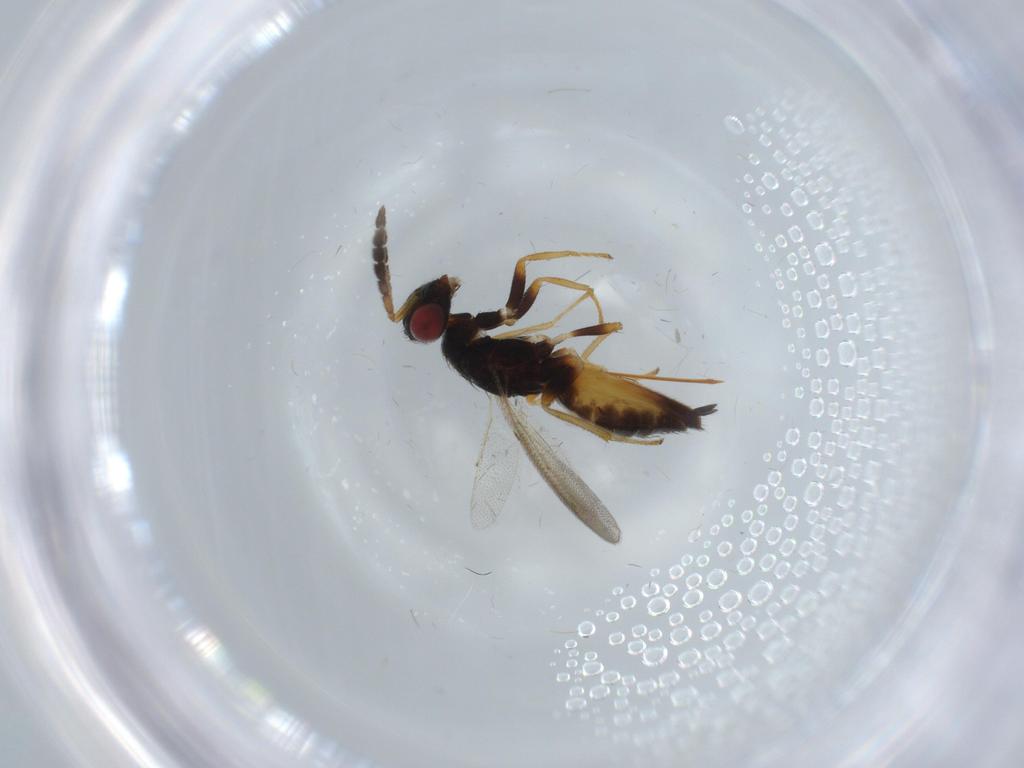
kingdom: Animalia
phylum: Arthropoda
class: Insecta
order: Hymenoptera
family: Eulophidae
